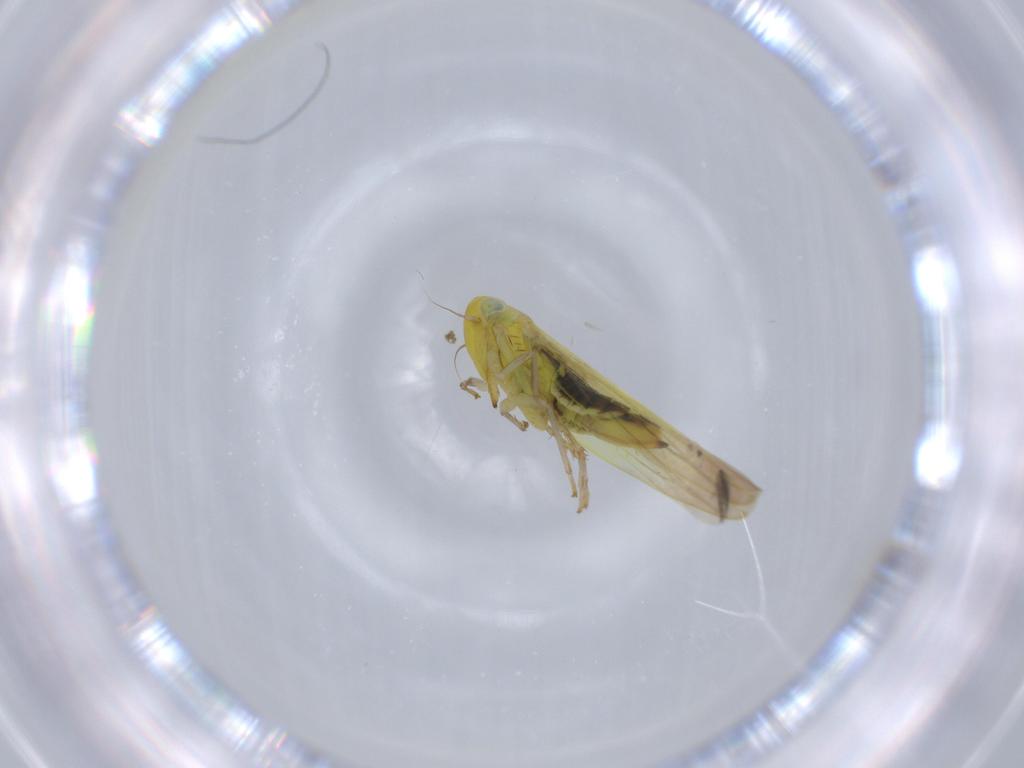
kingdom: Animalia
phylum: Arthropoda
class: Insecta
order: Hemiptera
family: Cicadellidae
